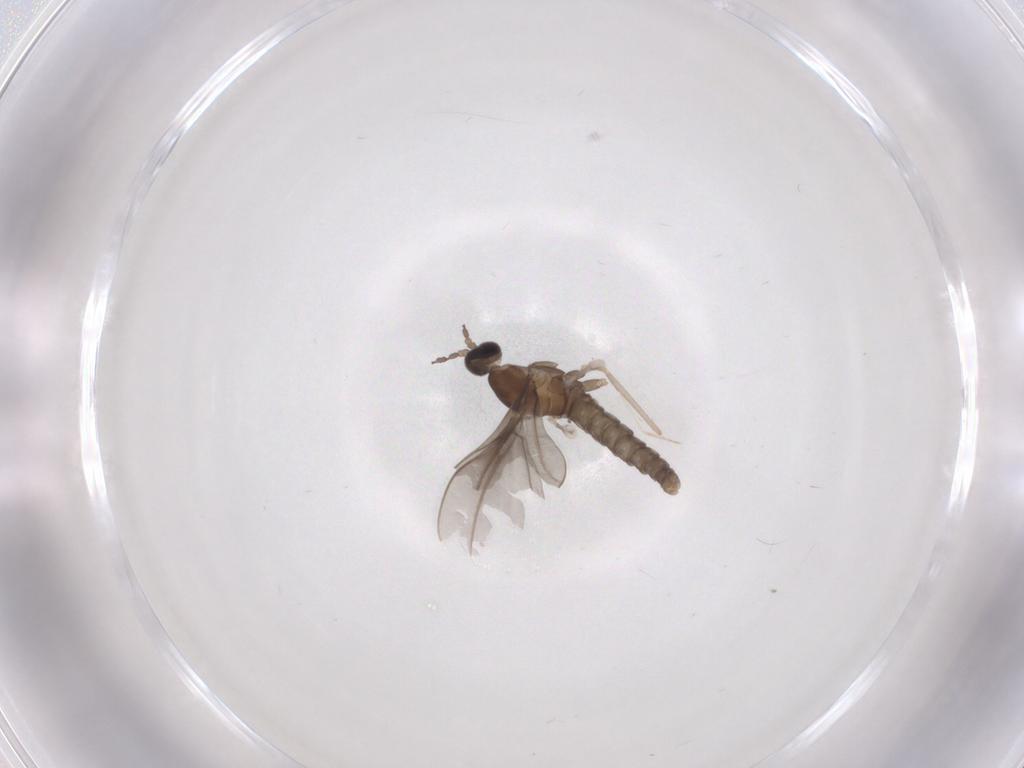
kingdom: Animalia
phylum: Arthropoda
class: Insecta
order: Diptera
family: Cecidomyiidae
